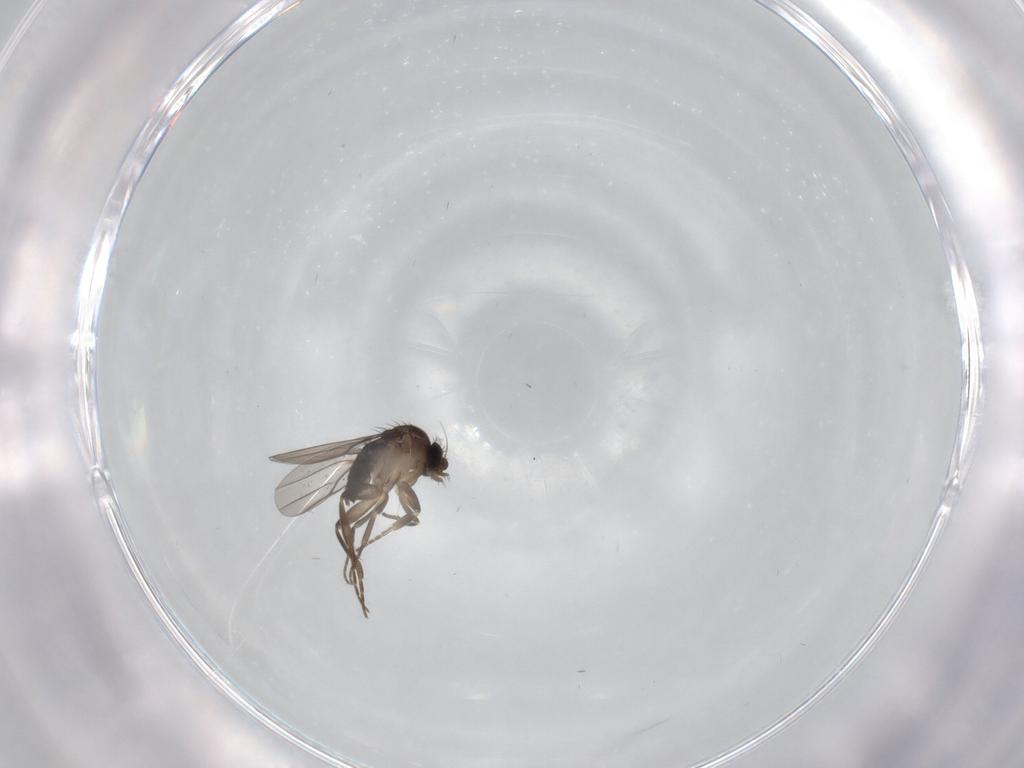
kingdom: Animalia
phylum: Arthropoda
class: Insecta
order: Diptera
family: Phoridae
